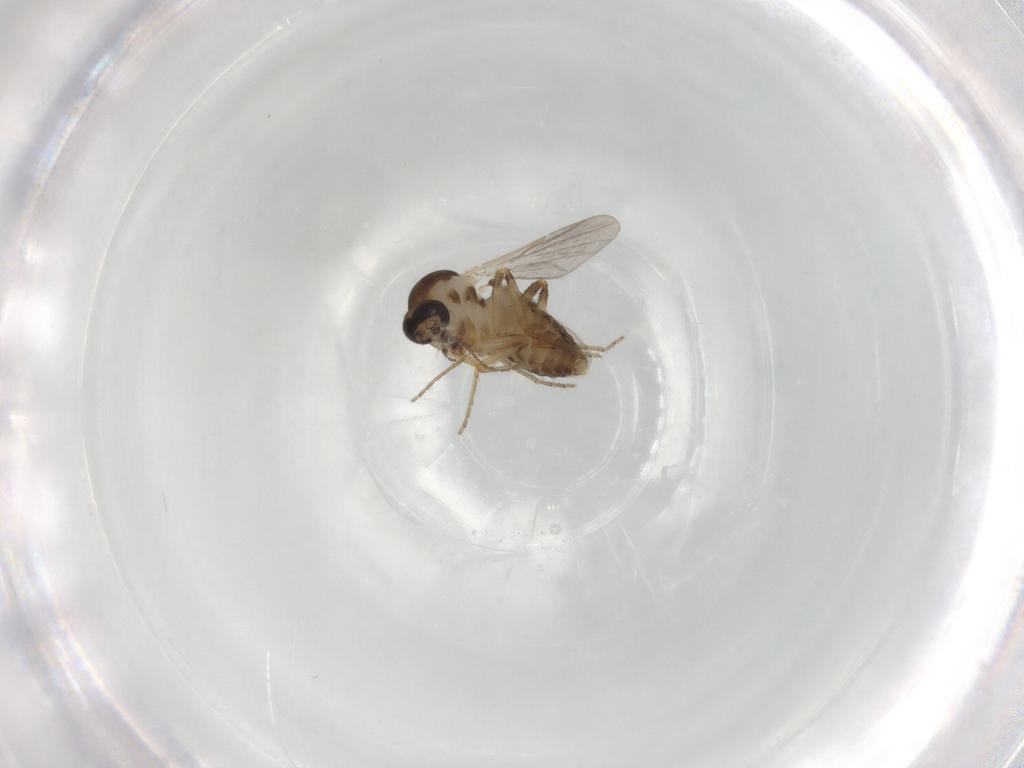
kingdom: Animalia
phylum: Arthropoda
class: Insecta
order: Diptera
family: Ceratopogonidae
